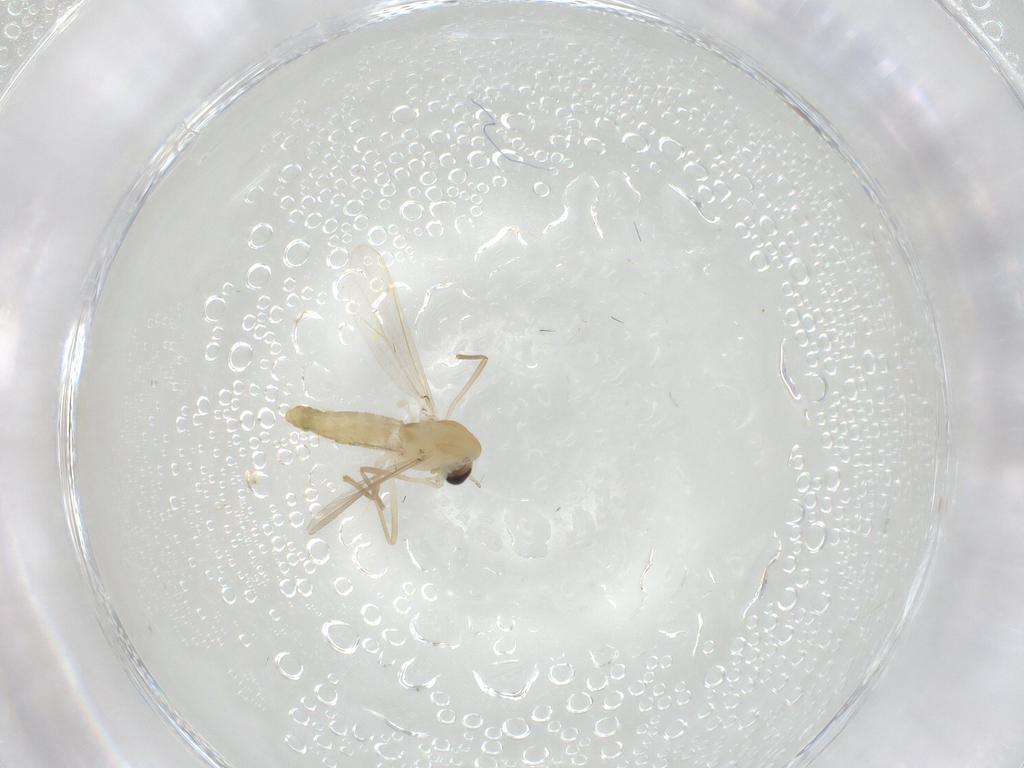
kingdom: Animalia
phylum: Arthropoda
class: Insecta
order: Diptera
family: Chironomidae
